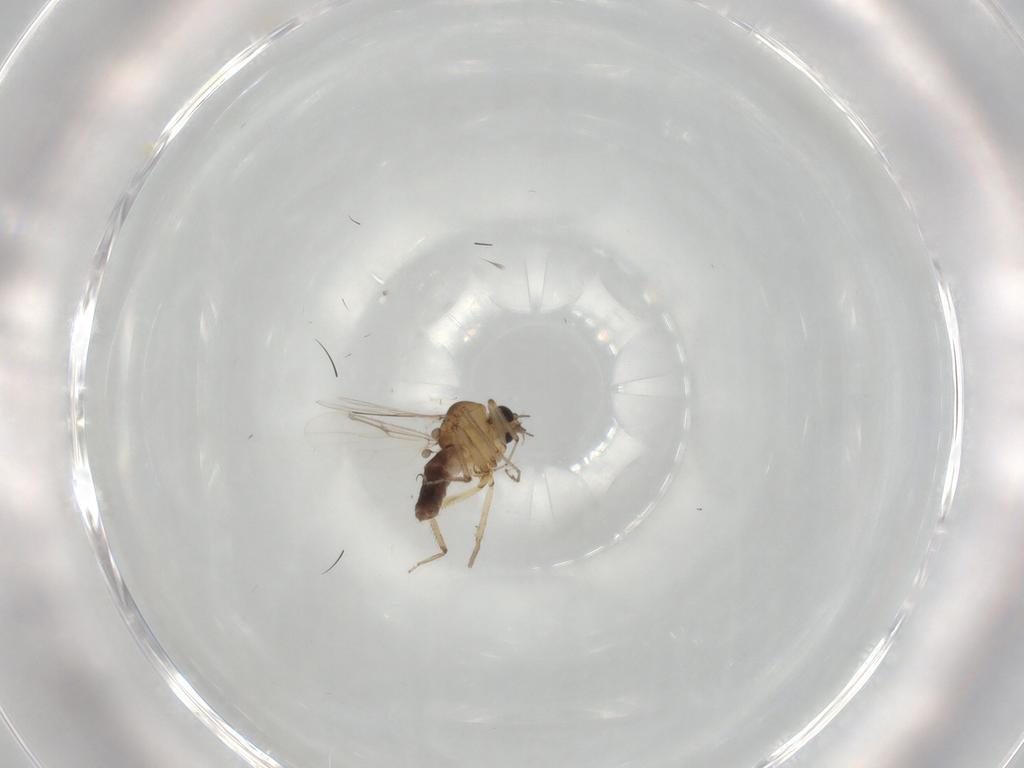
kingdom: Animalia
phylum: Arthropoda
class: Insecta
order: Diptera
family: Ceratopogonidae
